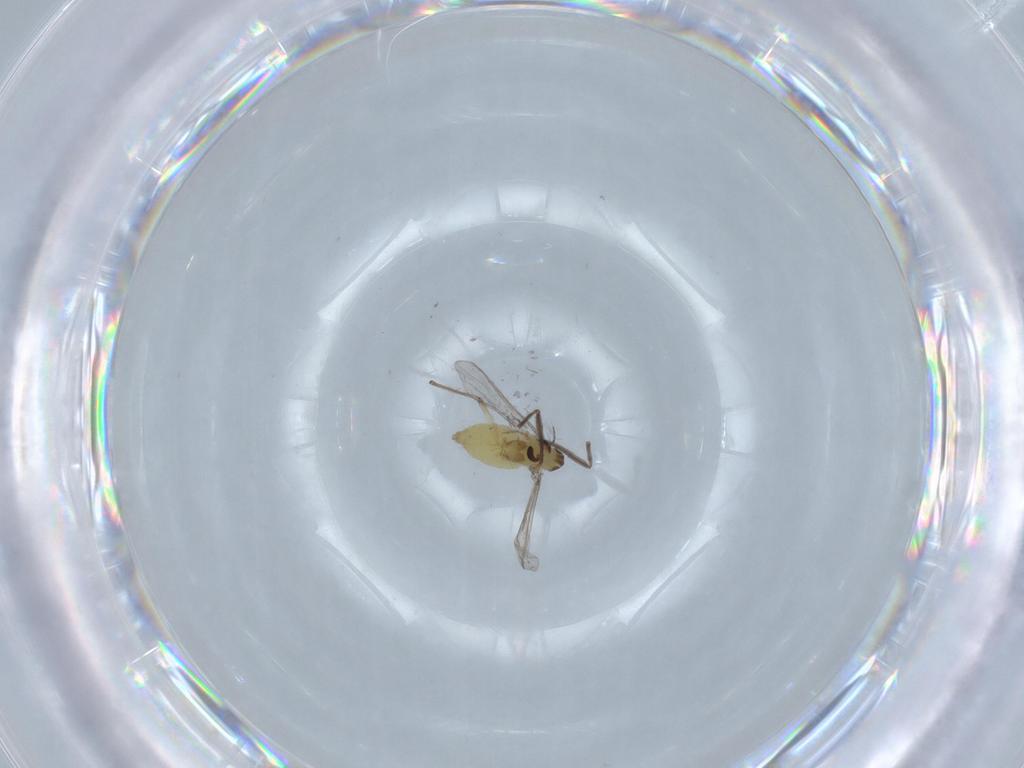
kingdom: Animalia
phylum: Arthropoda
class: Insecta
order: Diptera
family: Chironomidae
